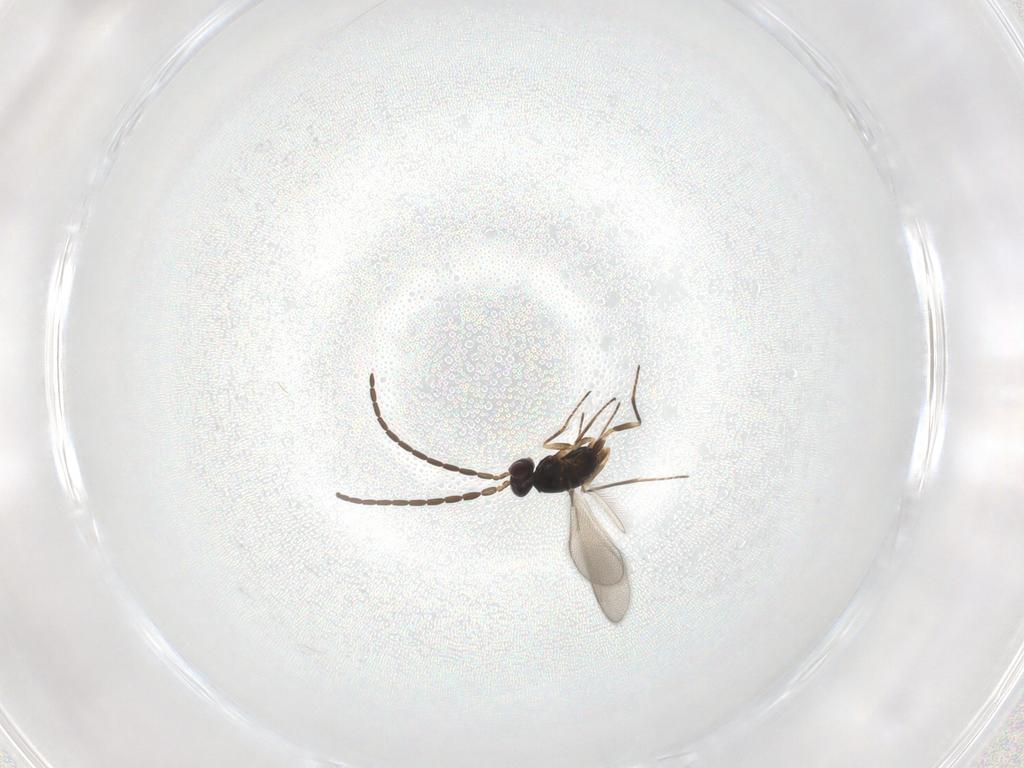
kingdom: Animalia
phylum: Arthropoda
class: Insecta
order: Hymenoptera
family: Mymaridae
